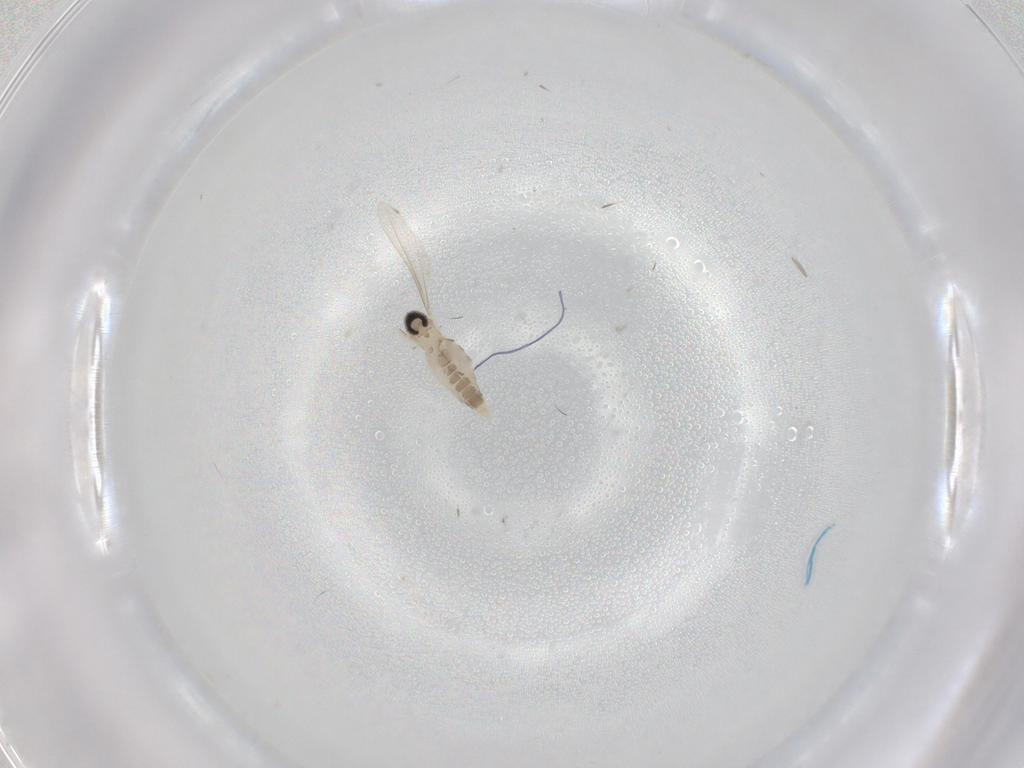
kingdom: Animalia
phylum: Arthropoda
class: Insecta
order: Diptera
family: Cecidomyiidae
